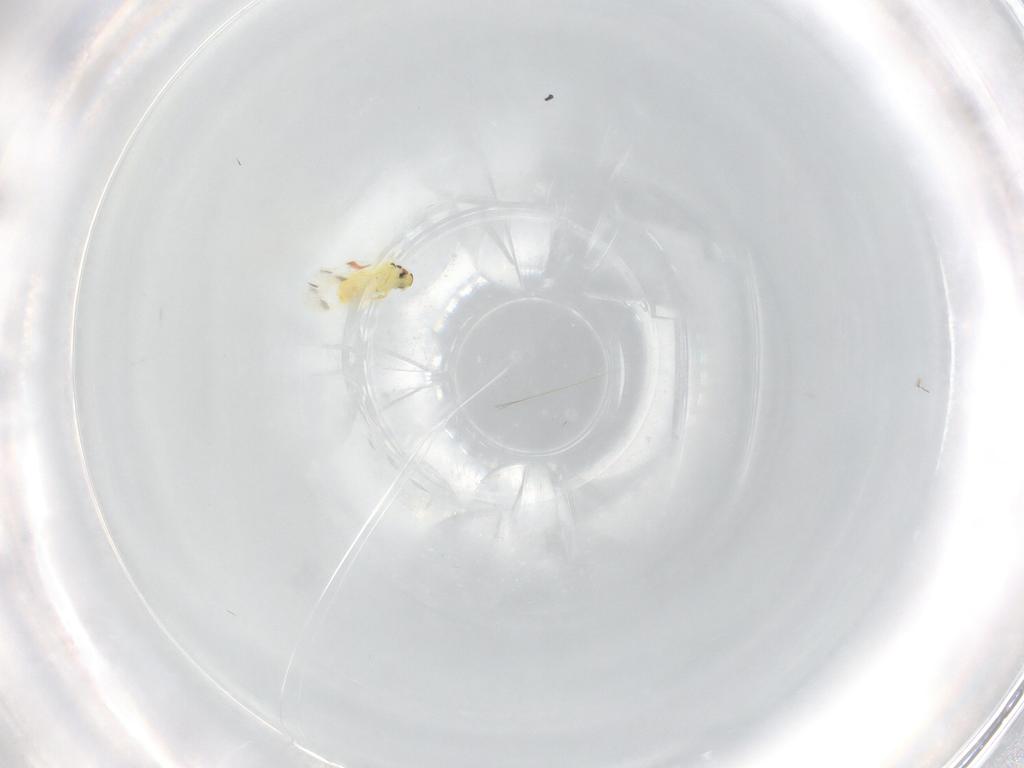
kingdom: Animalia
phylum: Arthropoda
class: Insecta
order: Hemiptera
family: Aleyrodidae
